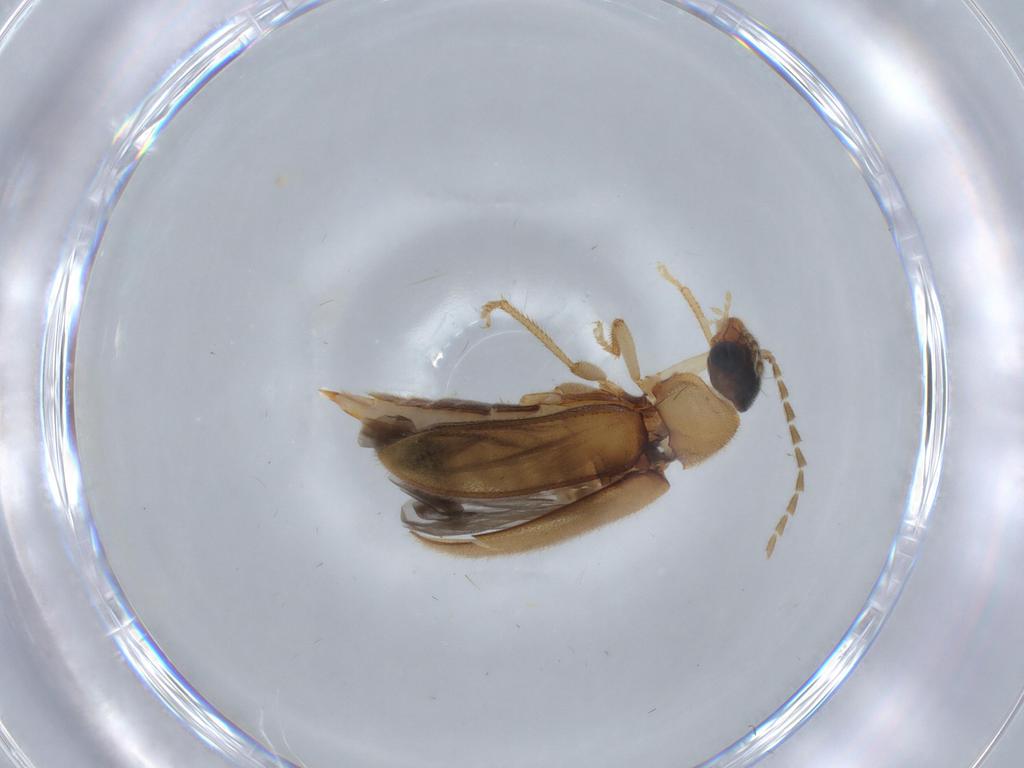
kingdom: Animalia
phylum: Arthropoda
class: Insecta
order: Coleoptera
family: Ptilodactylidae
